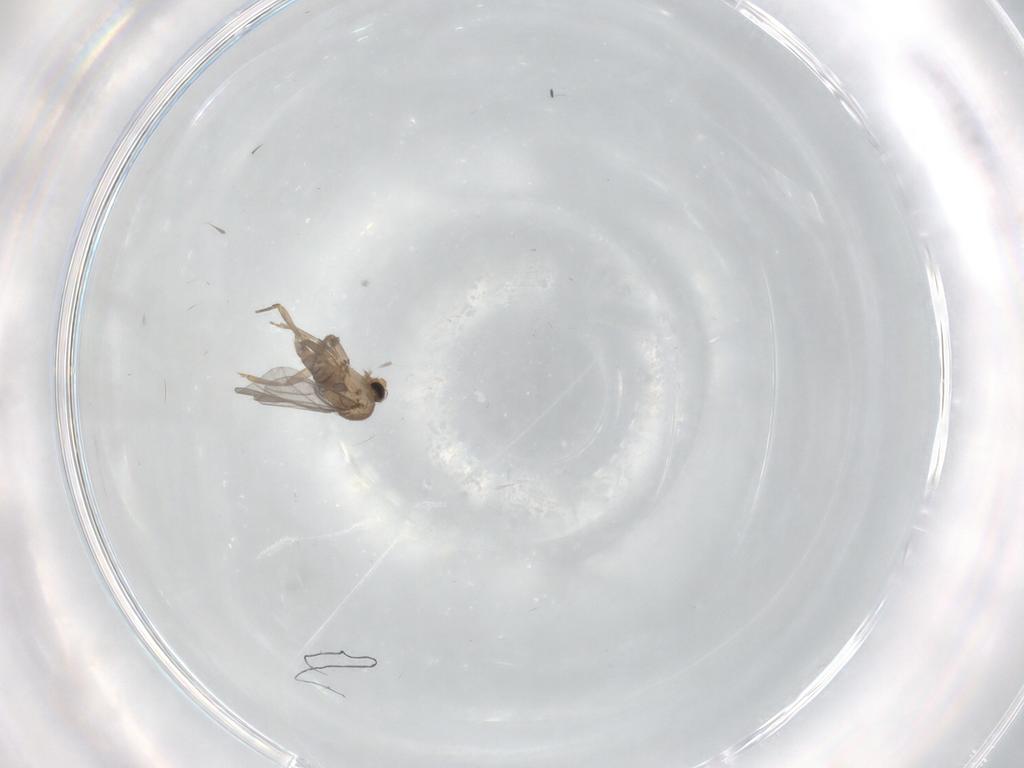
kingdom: Animalia
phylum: Arthropoda
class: Insecta
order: Diptera
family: Cecidomyiidae
